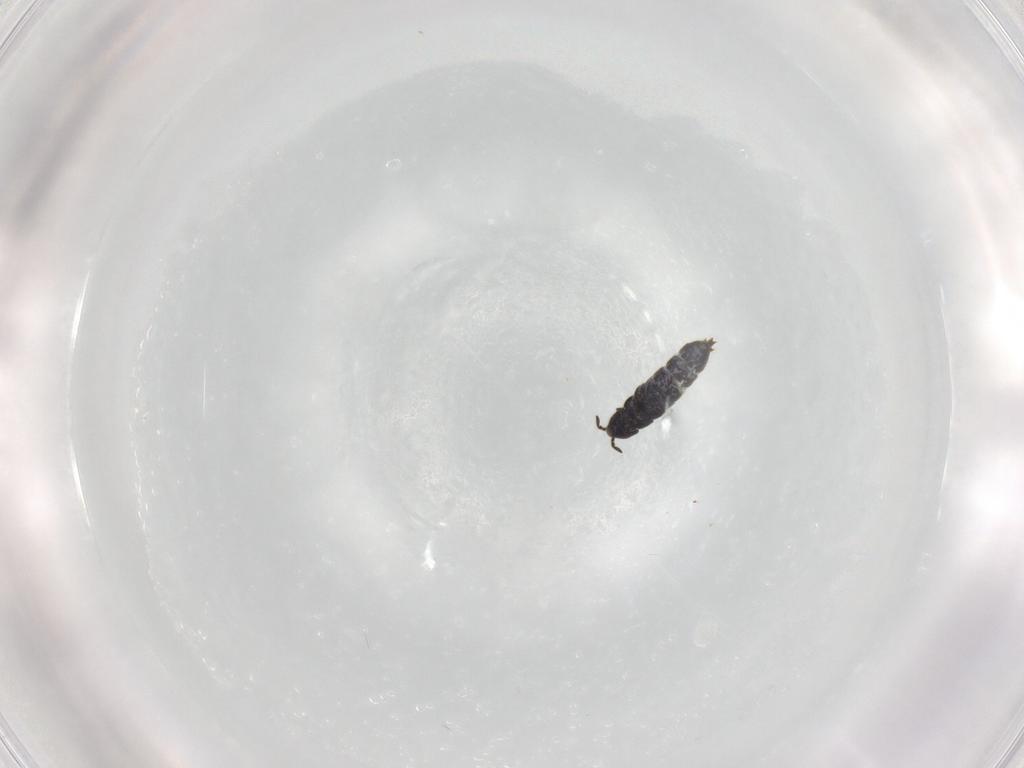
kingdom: Animalia
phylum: Arthropoda
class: Collembola
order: Entomobryomorpha
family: Isotomidae
